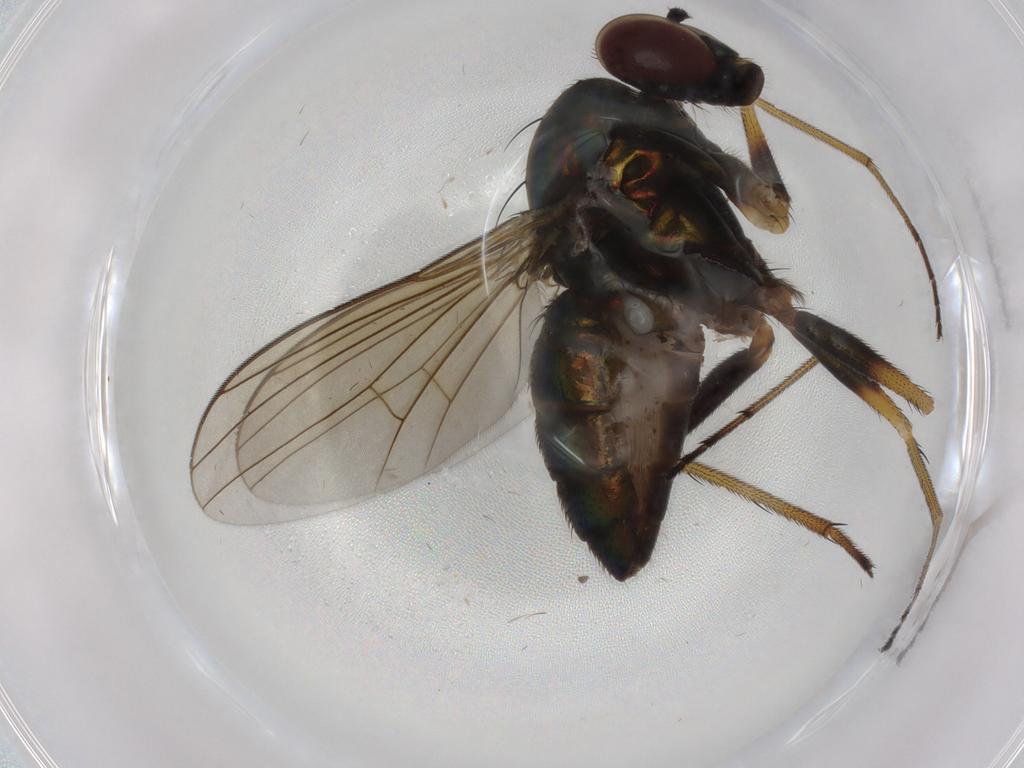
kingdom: Animalia
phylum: Arthropoda
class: Insecta
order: Diptera
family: Dolichopodidae
